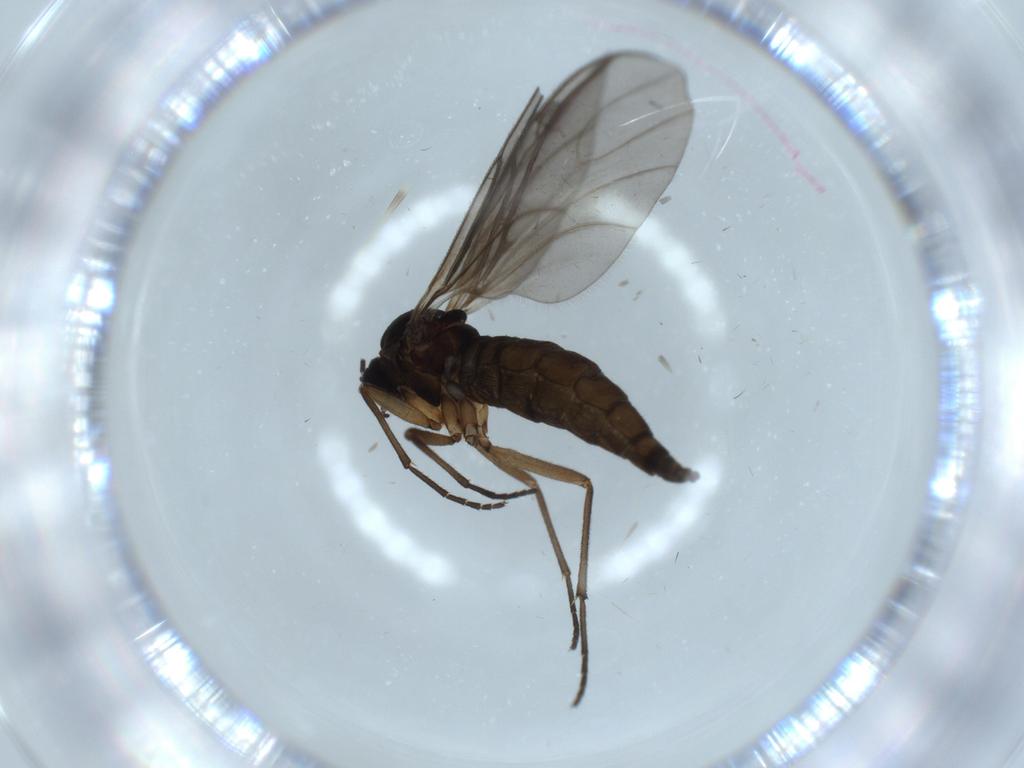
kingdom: Animalia
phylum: Arthropoda
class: Insecta
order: Diptera
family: Sciaridae
